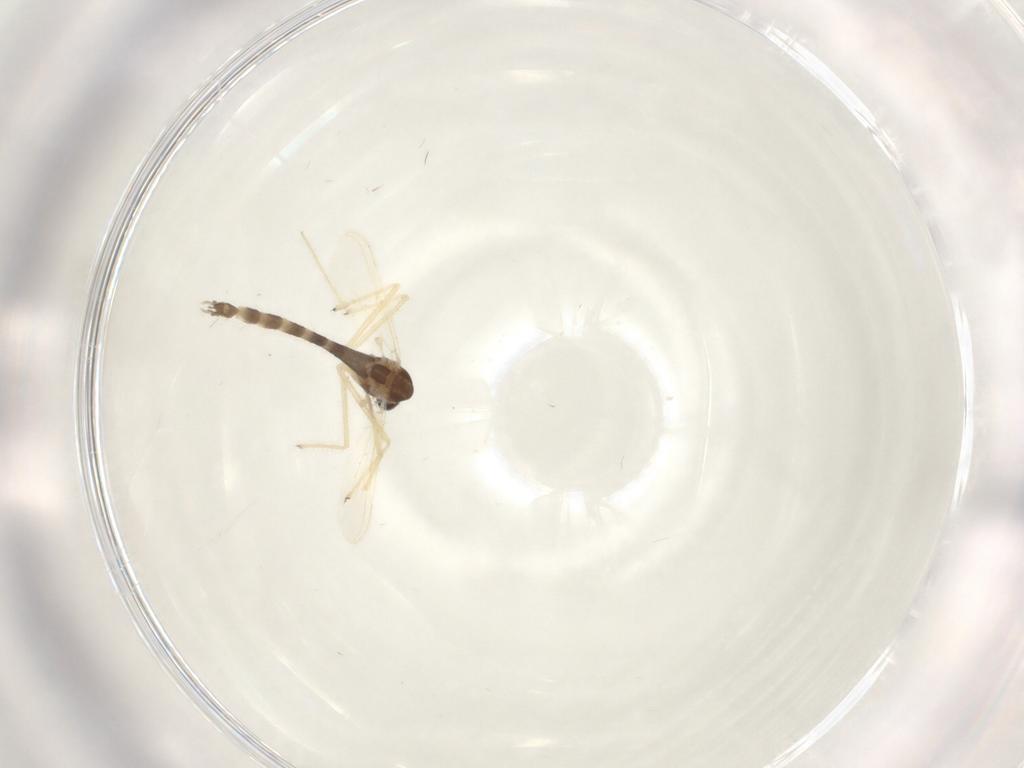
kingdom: Animalia
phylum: Arthropoda
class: Insecta
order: Diptera
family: Chironomidae
